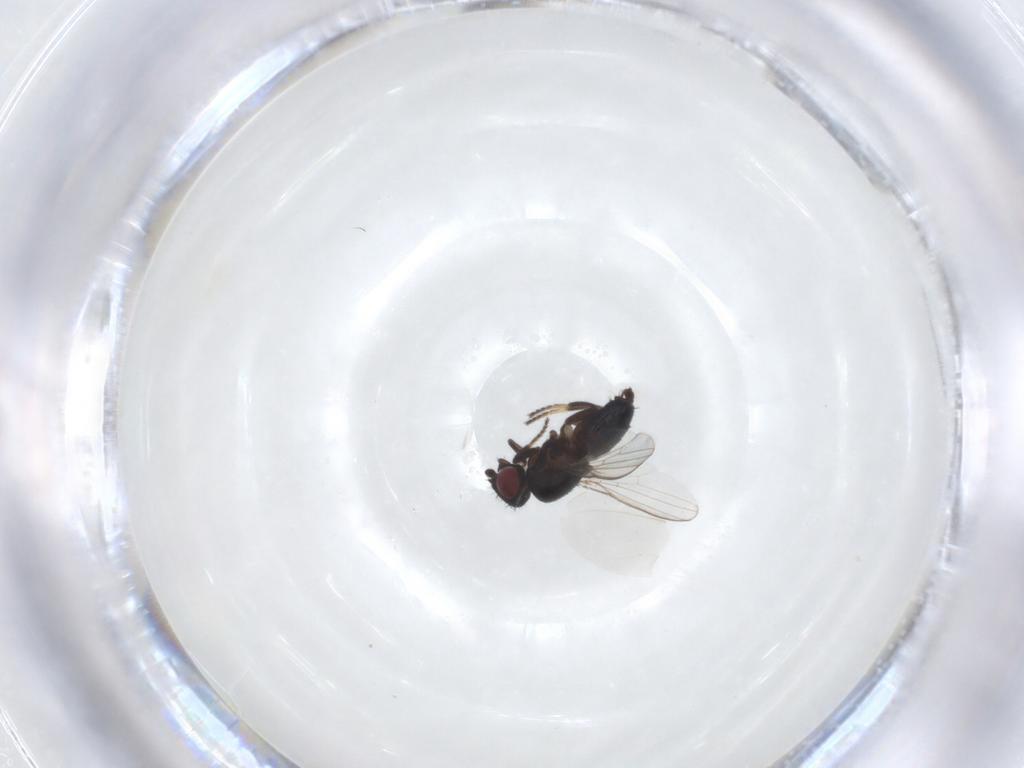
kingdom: Animalia
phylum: Arthropoda
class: Insecta
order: Diptera
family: Milichiidae
